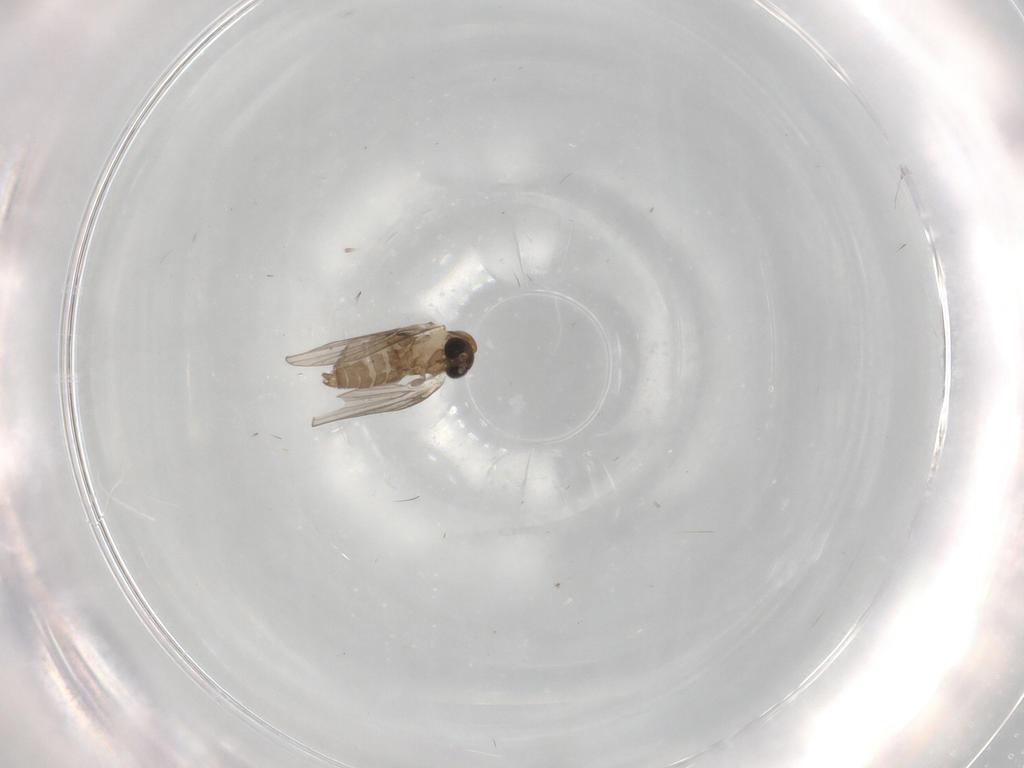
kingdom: Animalia
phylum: Arthropoda
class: Insecta
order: Diptera
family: Psychodidae
